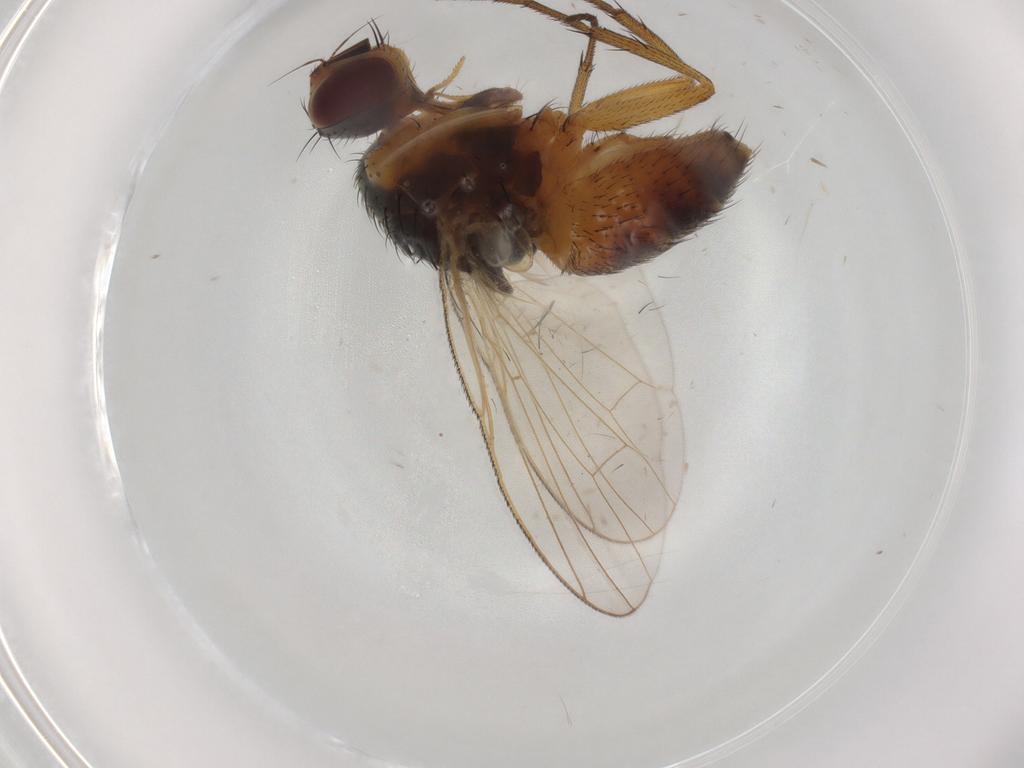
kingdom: Animalia
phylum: Arthropoda
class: Insecta
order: Diptera
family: Muscidae
